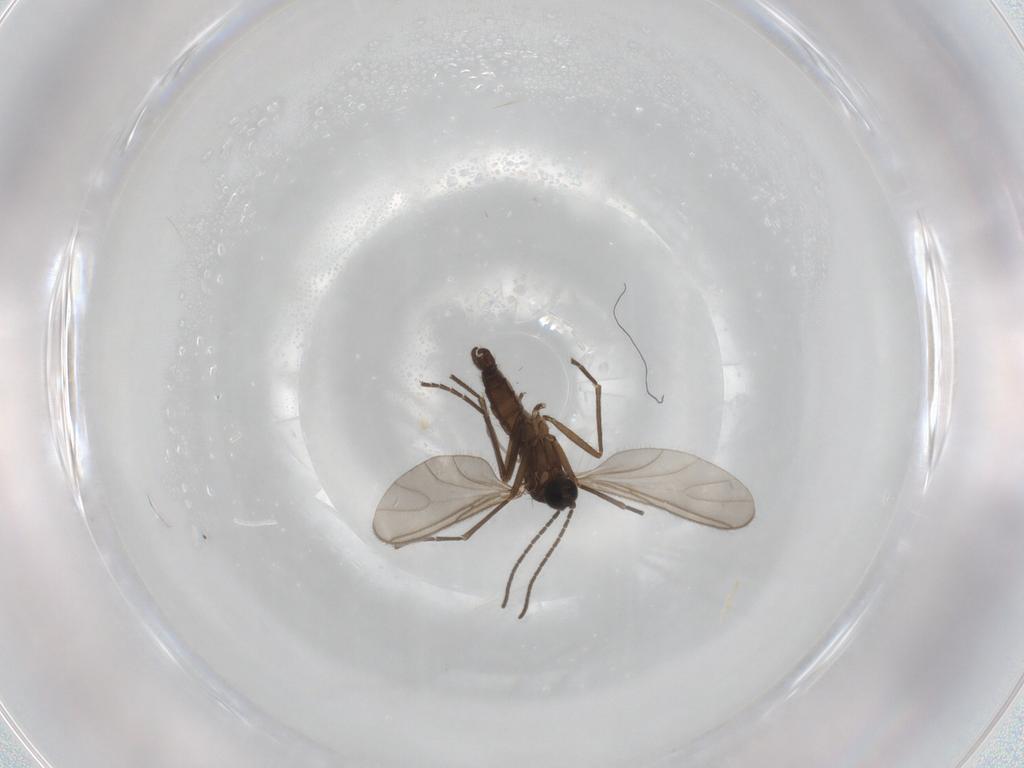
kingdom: Animalia
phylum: Arthropoda
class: Insecta
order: Diptera
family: Sciaridae
